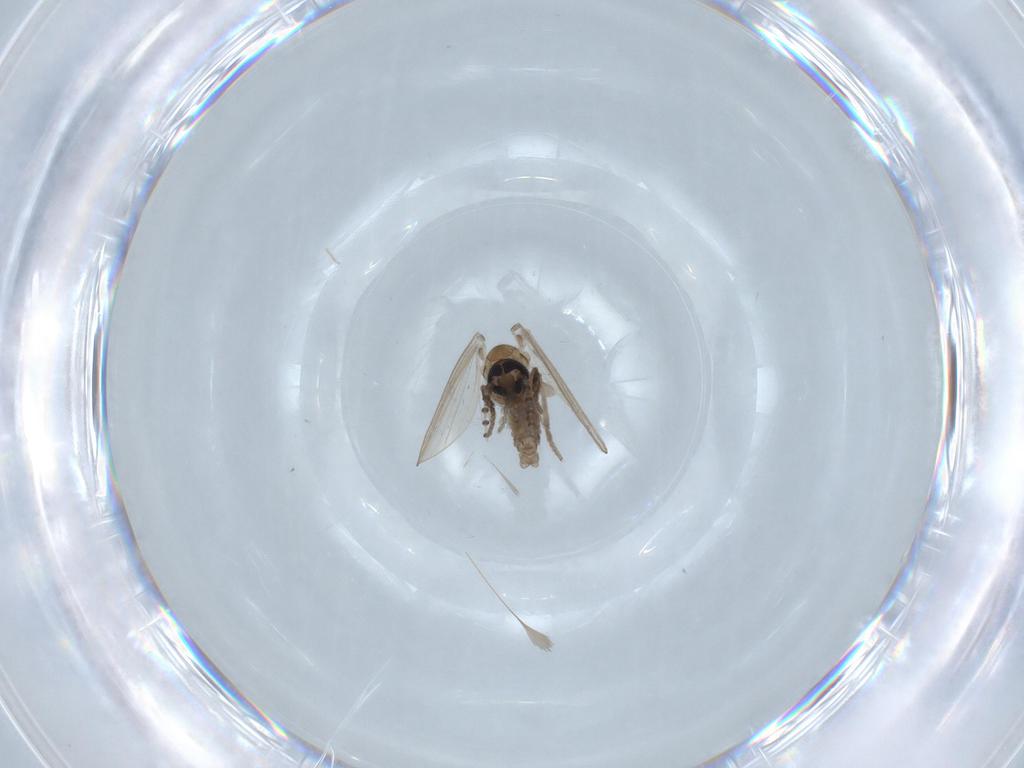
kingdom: Animalia
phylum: Arthropoda
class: Insecta
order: Diptera
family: Psychodidae
